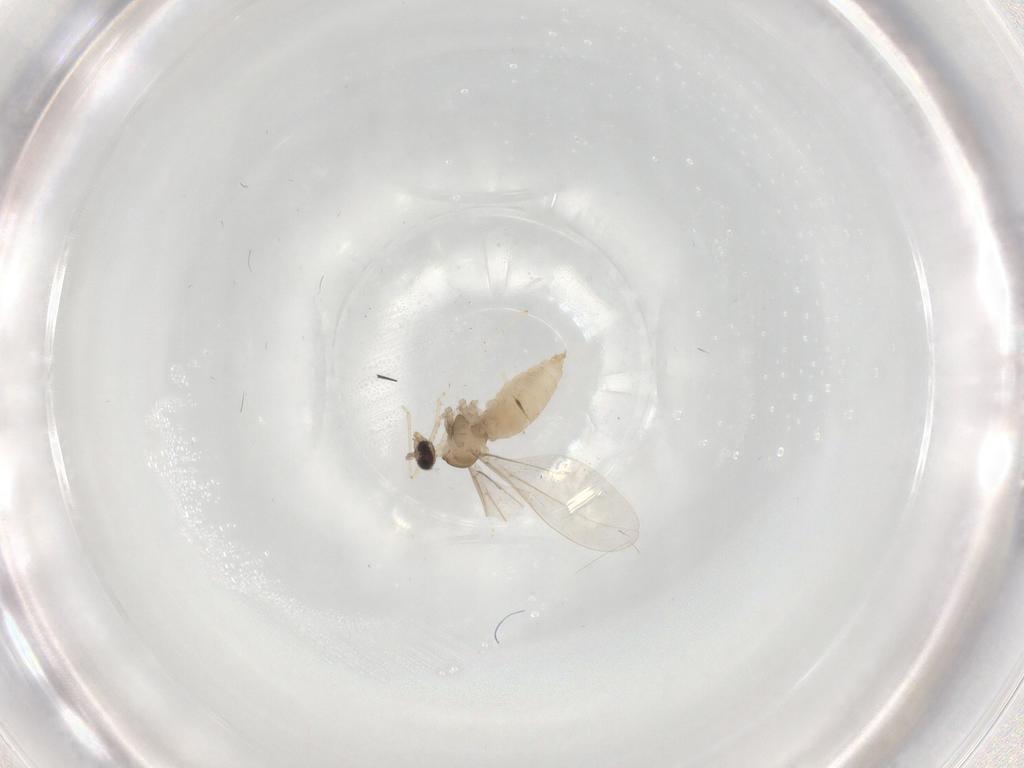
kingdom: Animalia
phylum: Arthropoda
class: Insecta
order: Diptera
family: Cecidomyiidae
